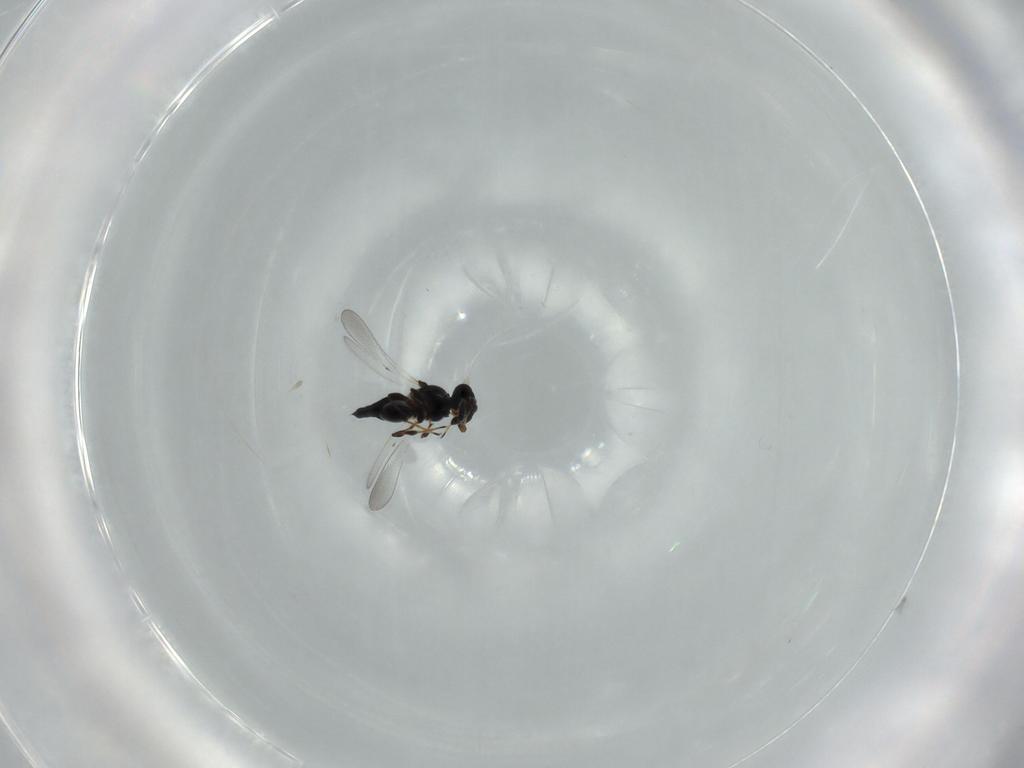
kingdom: Animalia
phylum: Arthropoda
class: Insecta
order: Hymenoptera
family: Platygastridae
